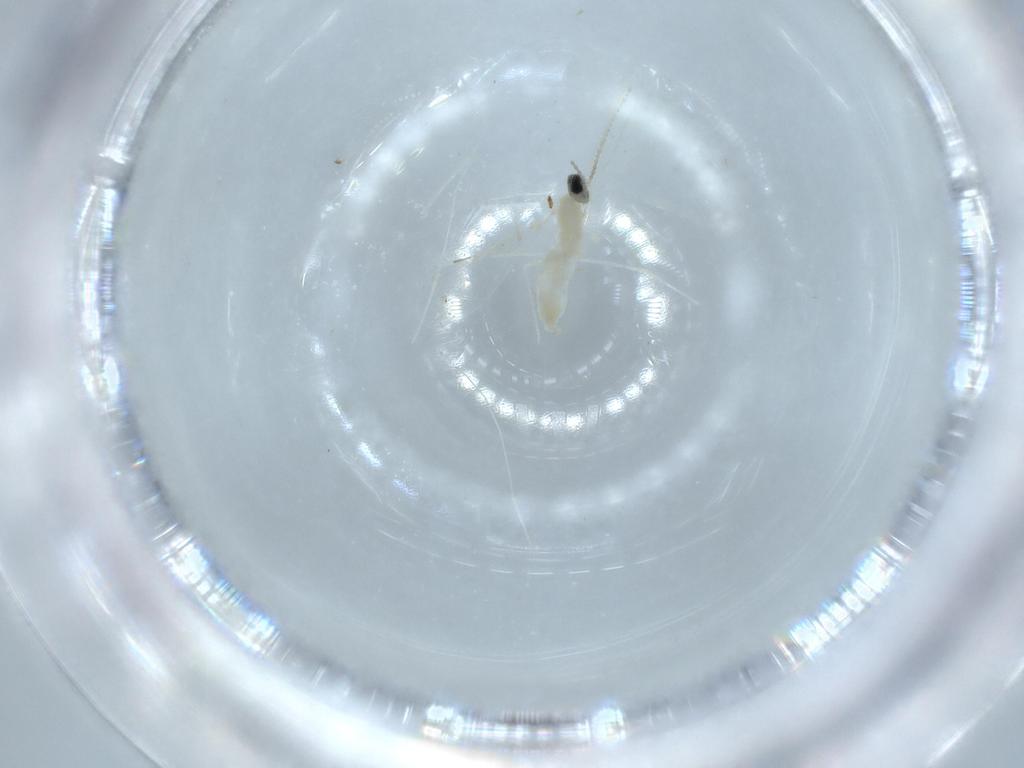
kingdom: Animalia
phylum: Arthropoda
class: Insecta
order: Diptera
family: Cecidomyiidae
